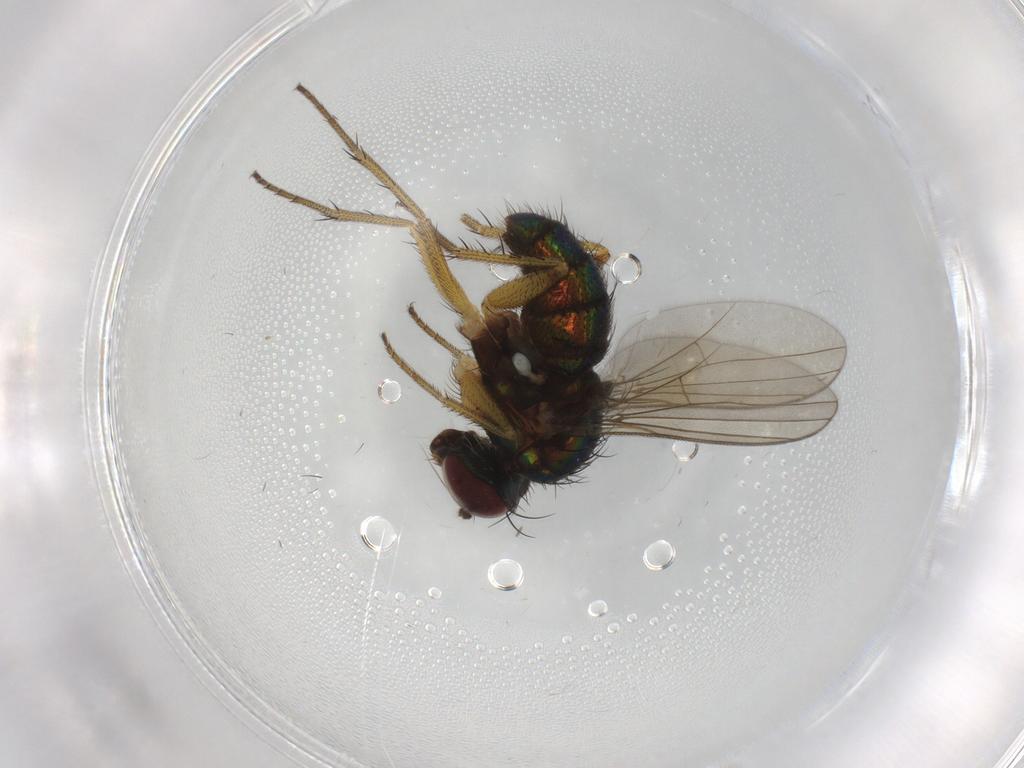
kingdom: Animalia
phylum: Arthropoda
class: Insecta
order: Diptera
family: Dolichopodidae
